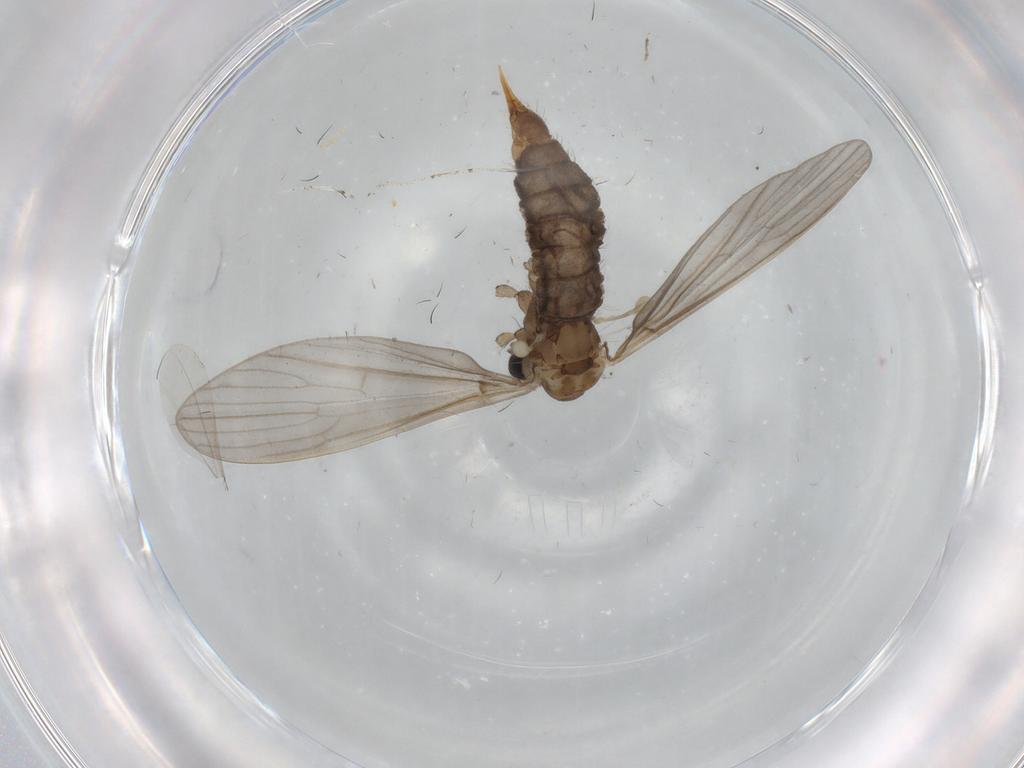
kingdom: Animalia
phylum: Arthropoda
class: Insecta
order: Diptera
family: Limoniidae
